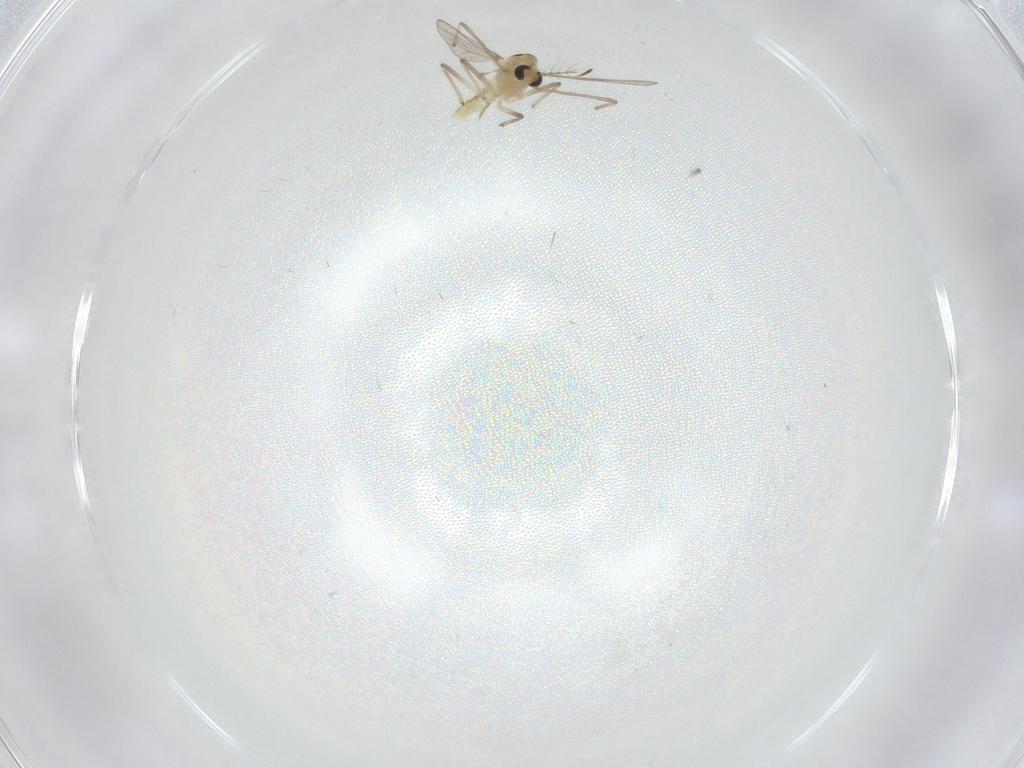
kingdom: Animalia
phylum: Arthropoda
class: Insecta
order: Diptera
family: Chironomidae
